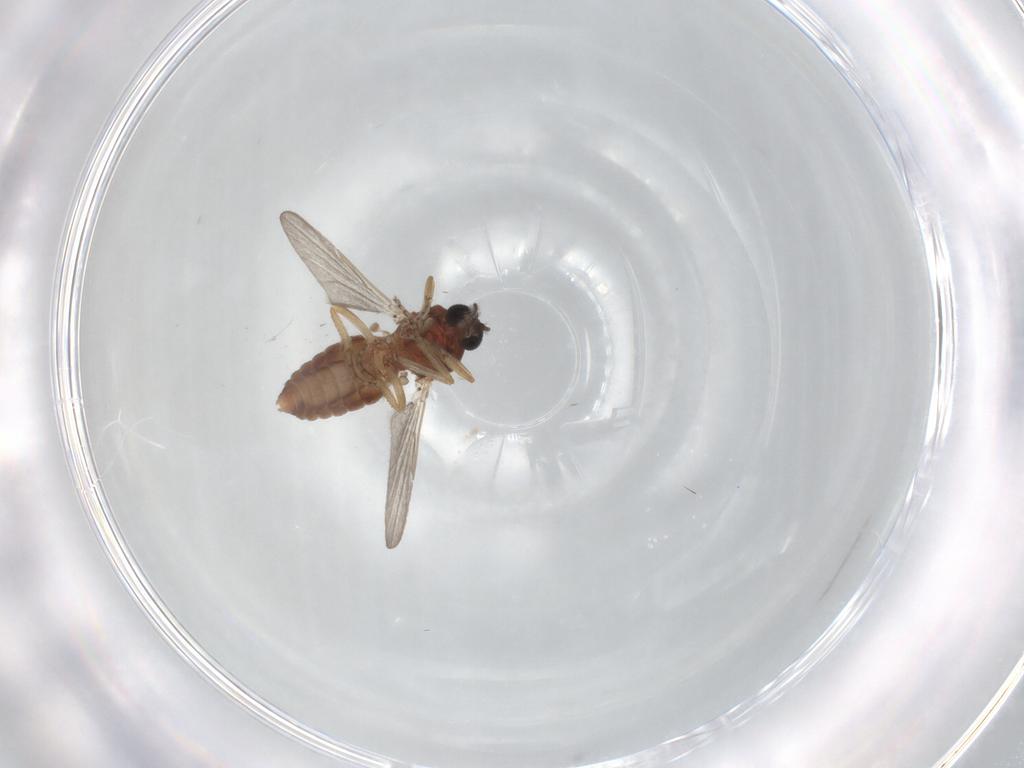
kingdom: Animalia
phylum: Arthropoda
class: Insecta
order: Diptera
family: Ceratopogonidae
